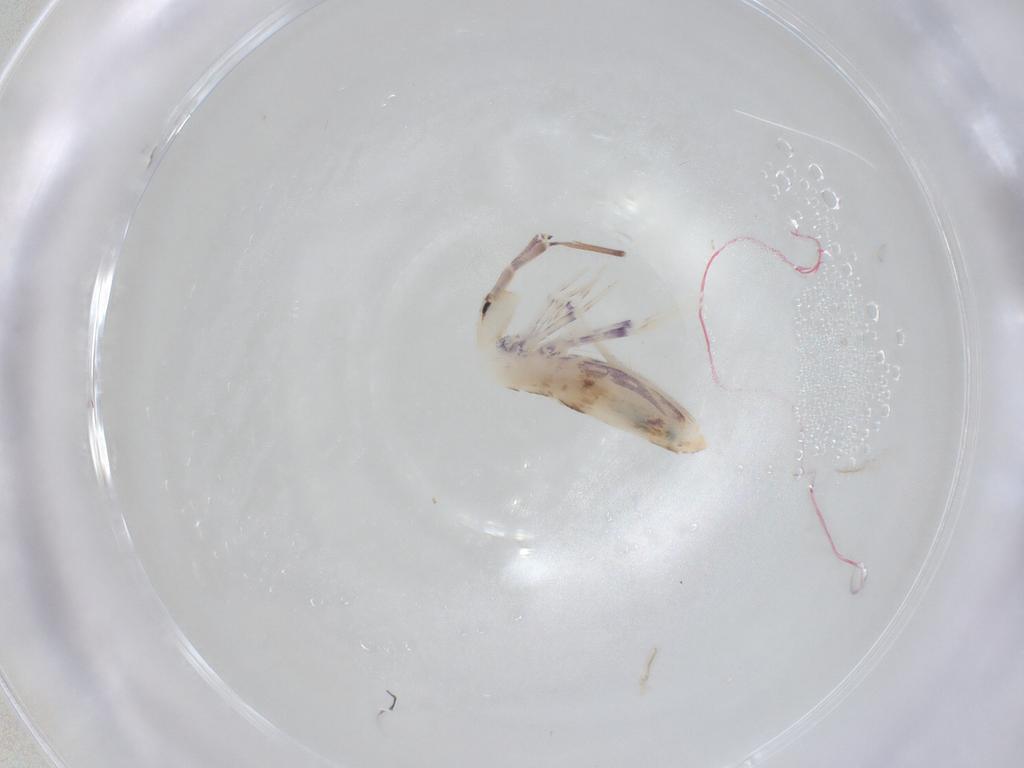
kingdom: Animalia
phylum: Arthropoda
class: Collembola
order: Poduromorpha
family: Hypogastruridae
